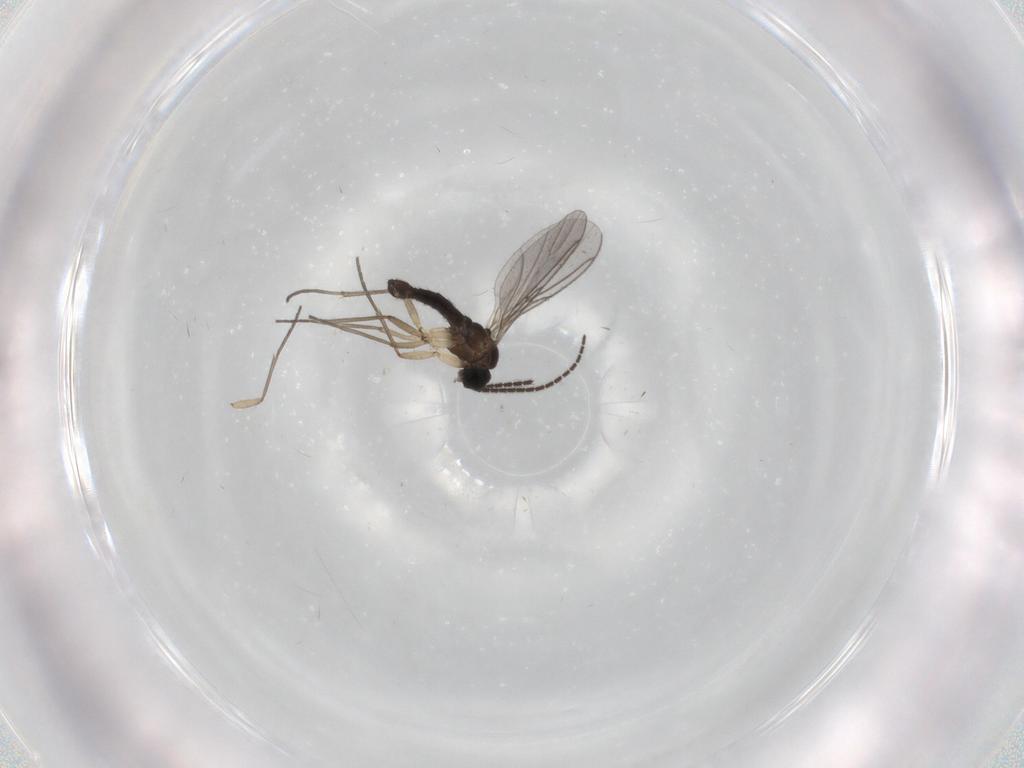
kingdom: Animalia
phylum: Arthropoda
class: Insecta
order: Diptera
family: Sciaridae
